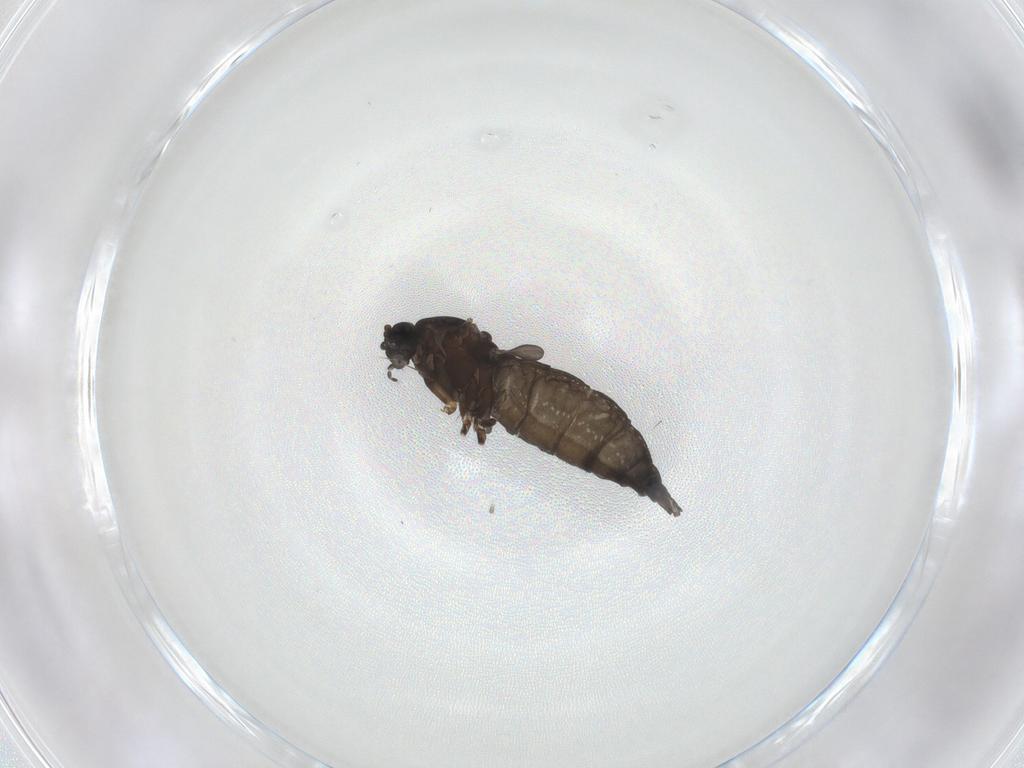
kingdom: Animalia
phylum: Arthropoda
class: Insecta
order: Diptera
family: Sciaridae
